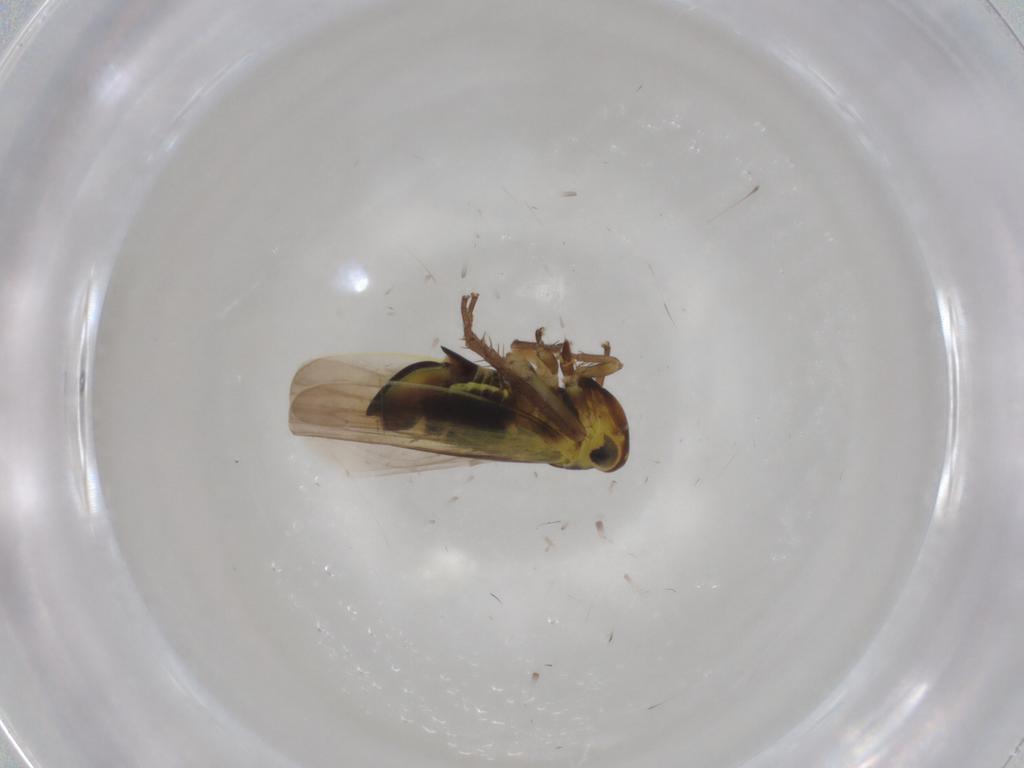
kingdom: Animalia
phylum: Arthropoda
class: Insecta
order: Hemiptera
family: Cicadellidae
